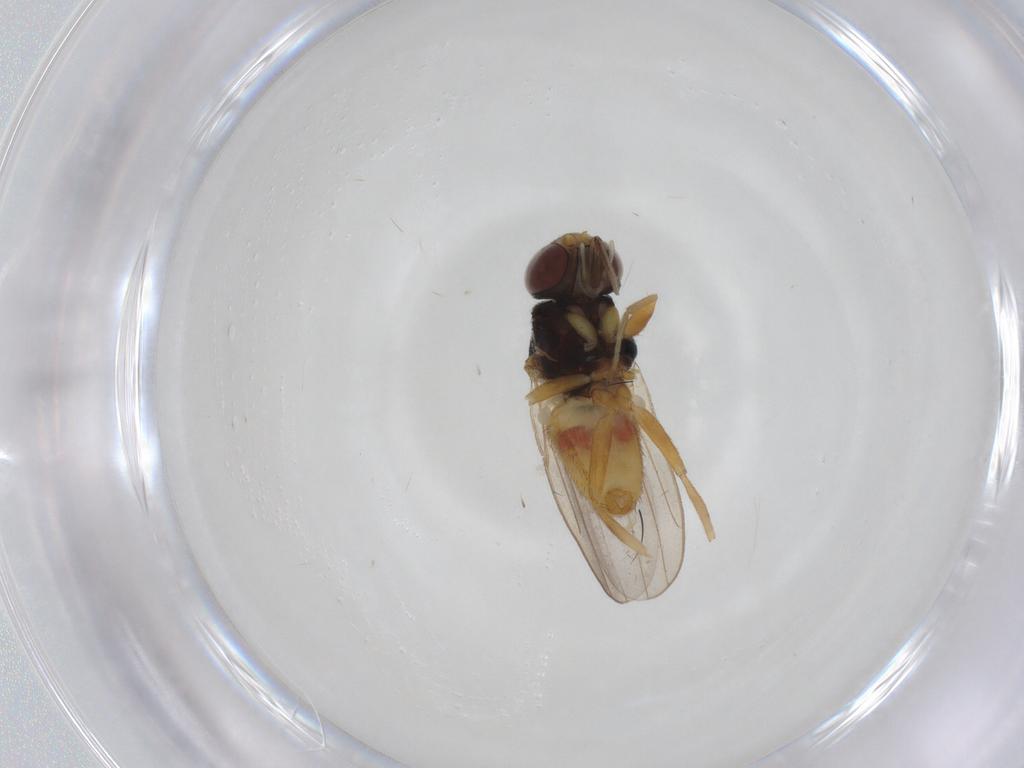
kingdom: Animalia
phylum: Arthropoda
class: Insecta
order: Diptera
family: Chloropidae
